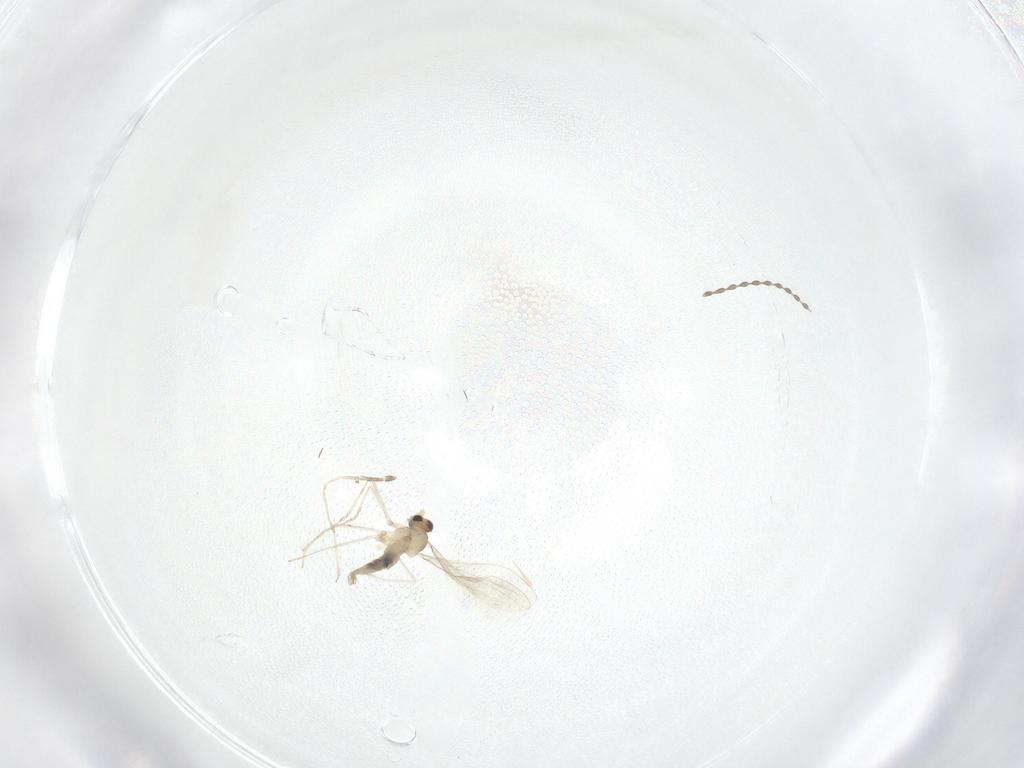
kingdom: Animalia
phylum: Arthropoda
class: Insecta
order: Diptera
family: Cecidomyiidae
